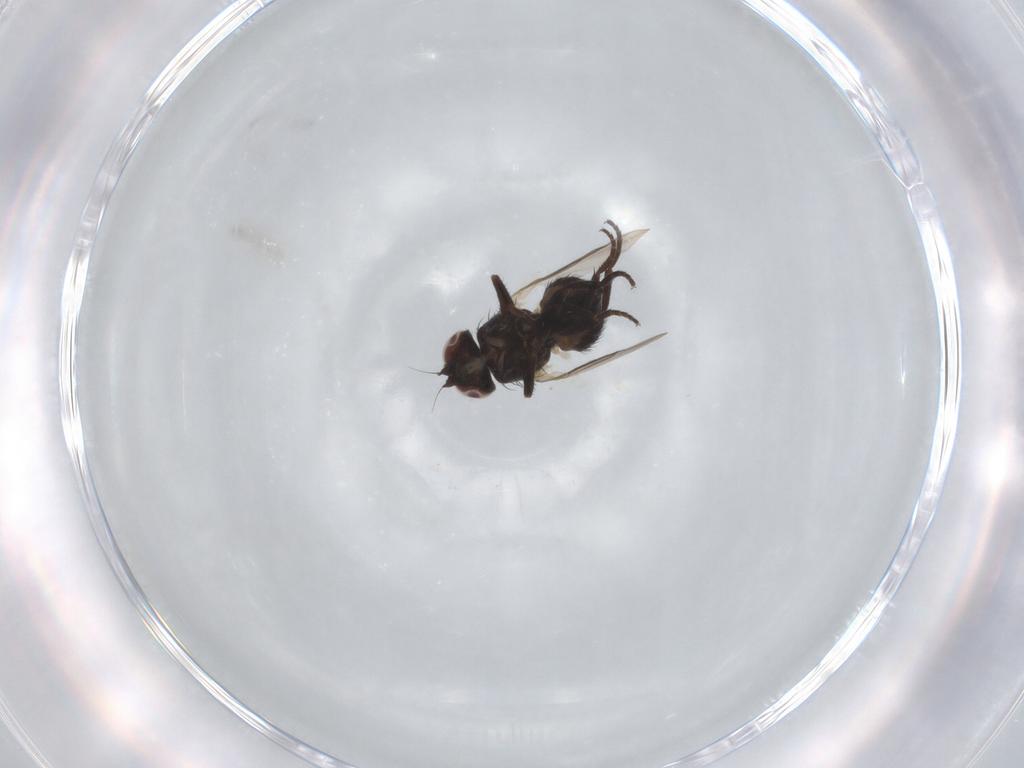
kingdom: Animalia
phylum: Arthropoda
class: Insecta
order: Diptera
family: Agromyzidae
